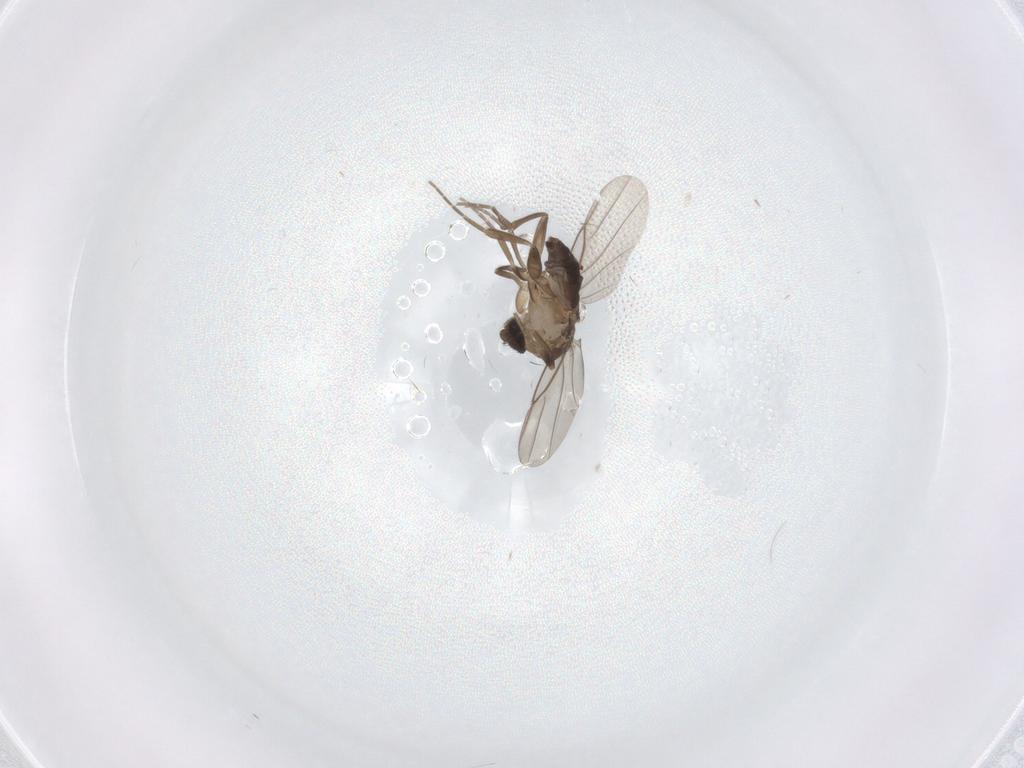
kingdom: Animalia
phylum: Arthropoda
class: Insecta
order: Diptera
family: Phoridae
